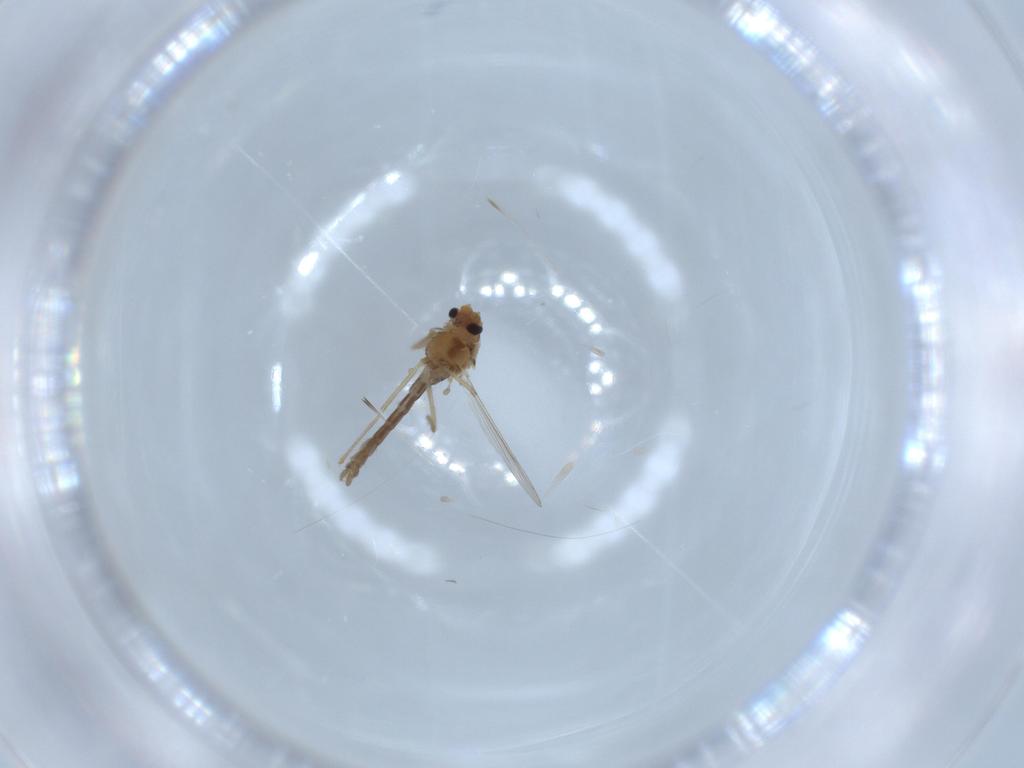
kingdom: Animalia
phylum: Arthropoda
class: Insecta
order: Diptera
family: Chironomidae
